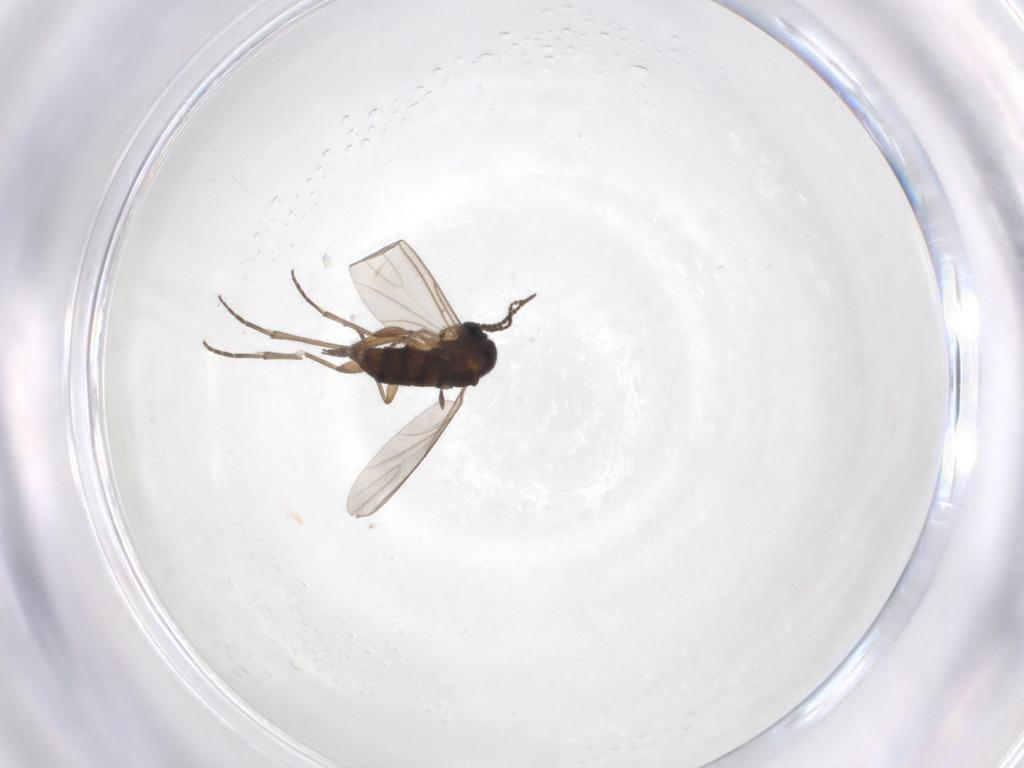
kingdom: Animalia
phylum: Arthropoda
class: Insecta
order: Diptera
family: Sciaridae
